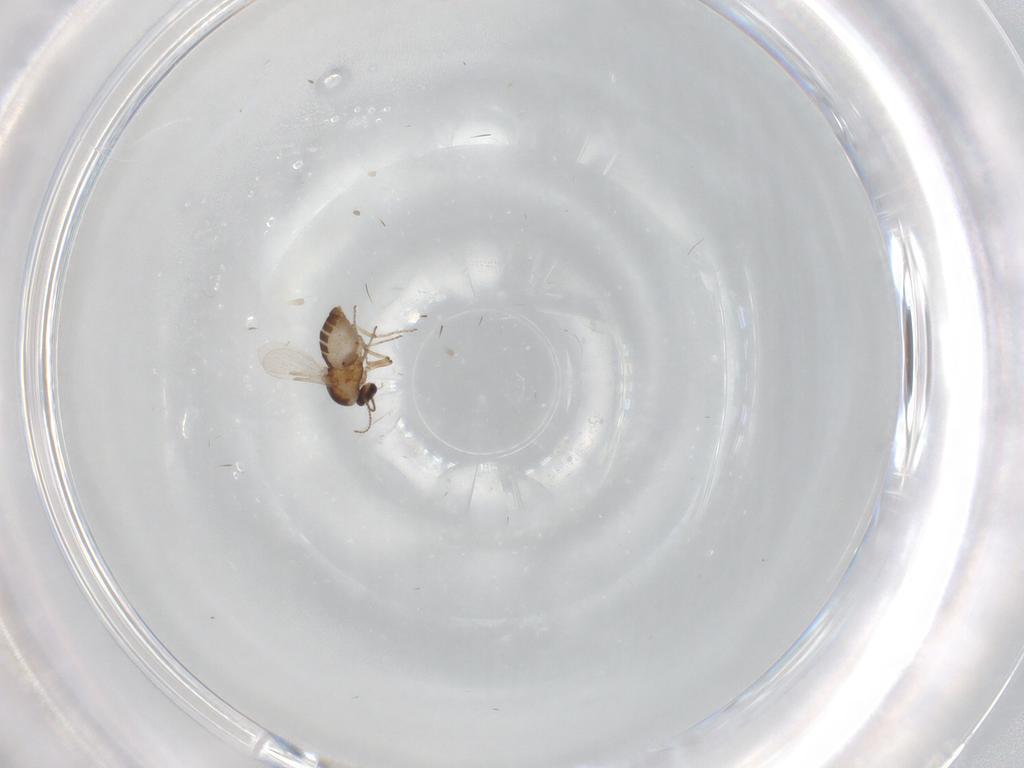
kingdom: Animalia
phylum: Arthropoda
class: Insecta
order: Diptera
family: Ceratopogonidae
